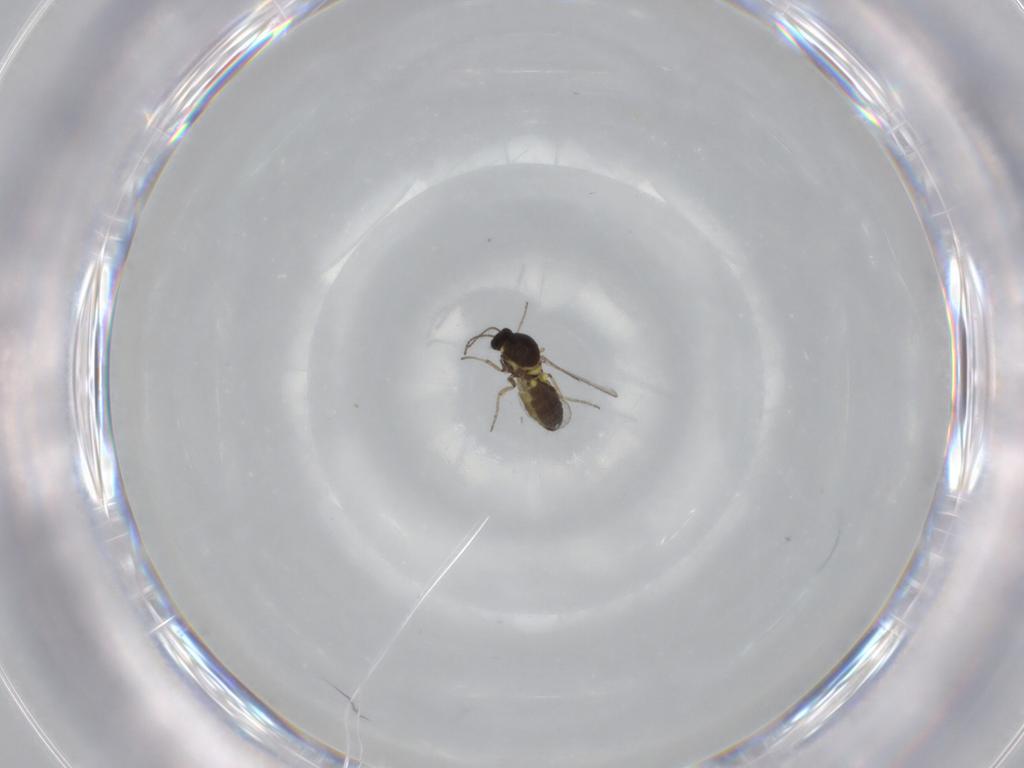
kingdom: Animalia
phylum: Arthropoda
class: Insecta
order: Diptera
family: Ceratopogonidae
